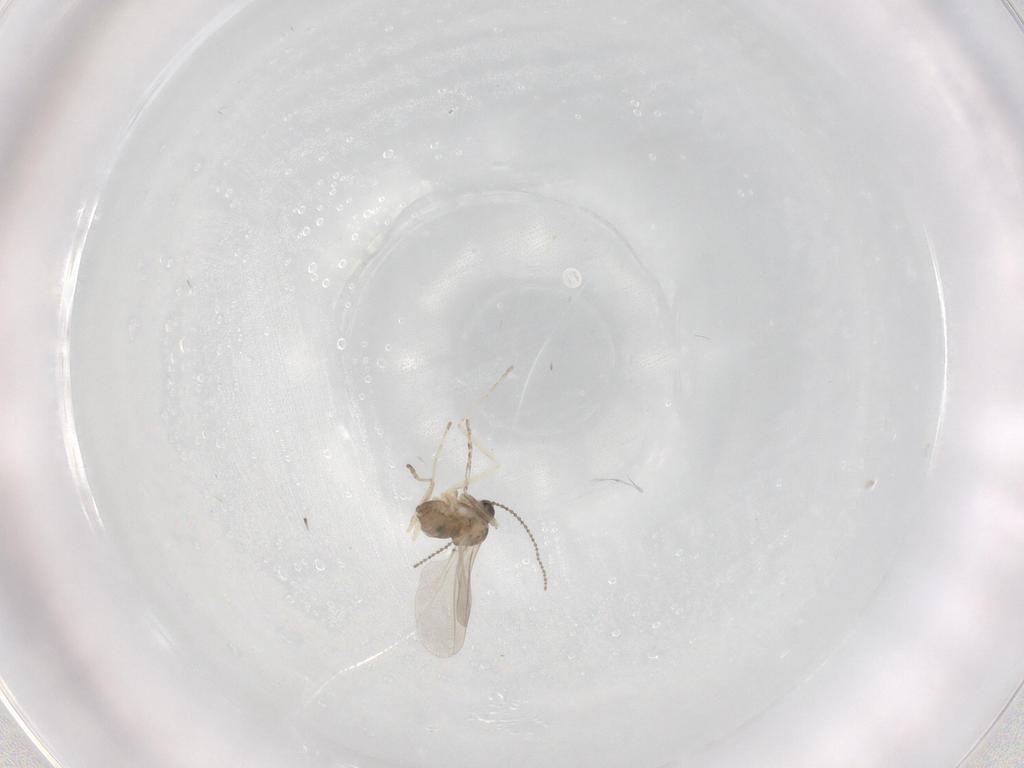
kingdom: Animalia
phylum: Arthropoda
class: Insecta
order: Diptera
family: Cecidomyiidae
